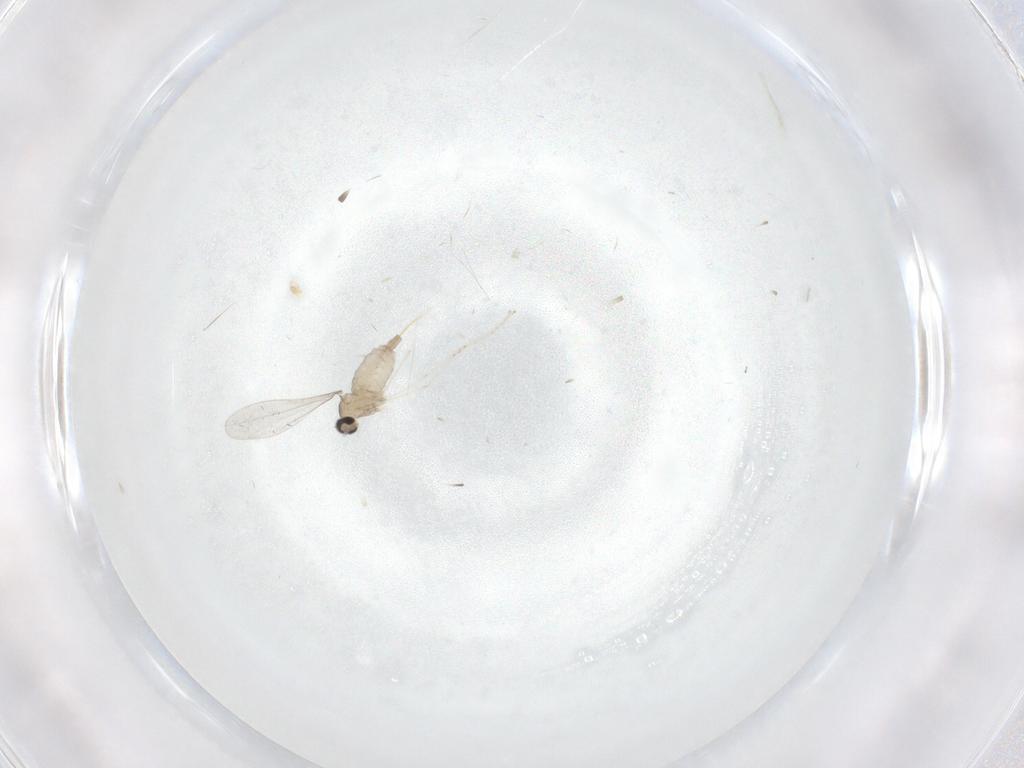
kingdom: Animalia
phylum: Arthropoda
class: Insecta
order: Diptera
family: Cecidomyiidae
